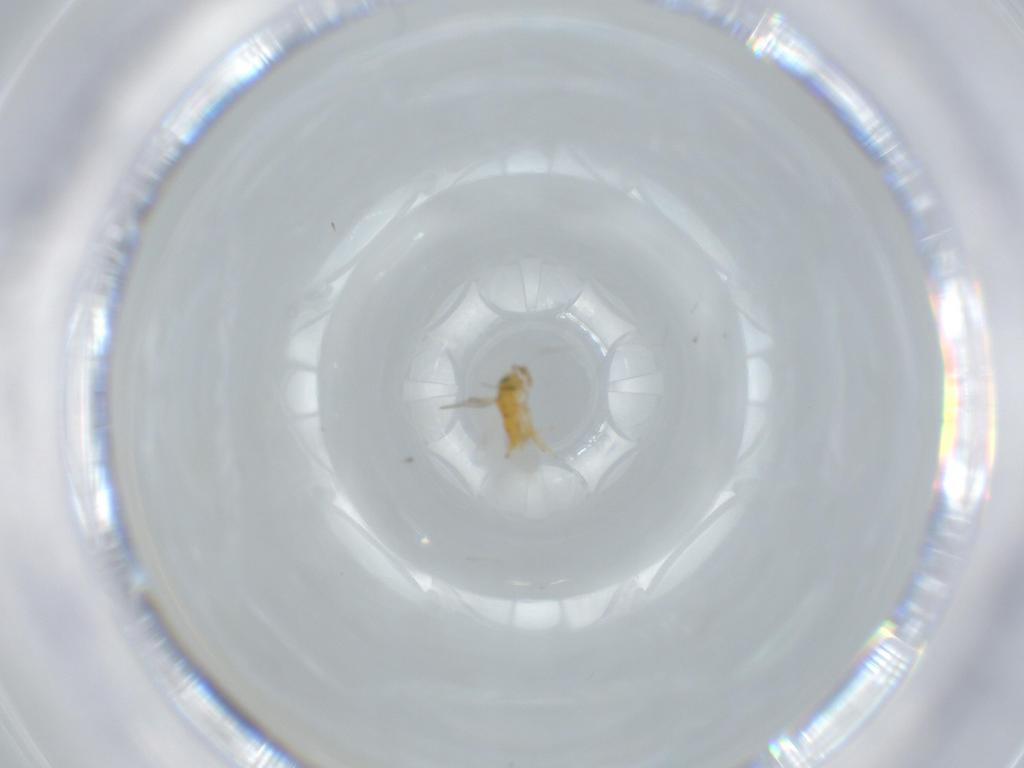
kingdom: Animalia
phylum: Arthropoda
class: Insecta
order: Hymenoptera
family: Encyrtidae
